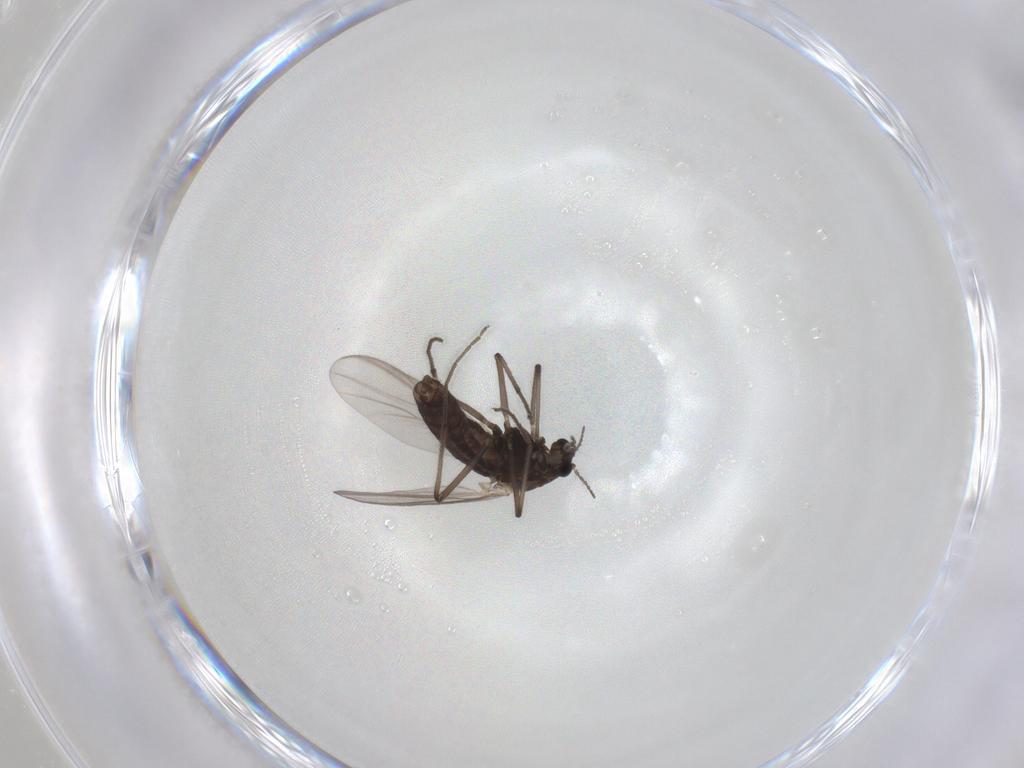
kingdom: Animalia
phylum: Arthropoda
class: Insecta
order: Diptera
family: Chironomidae
